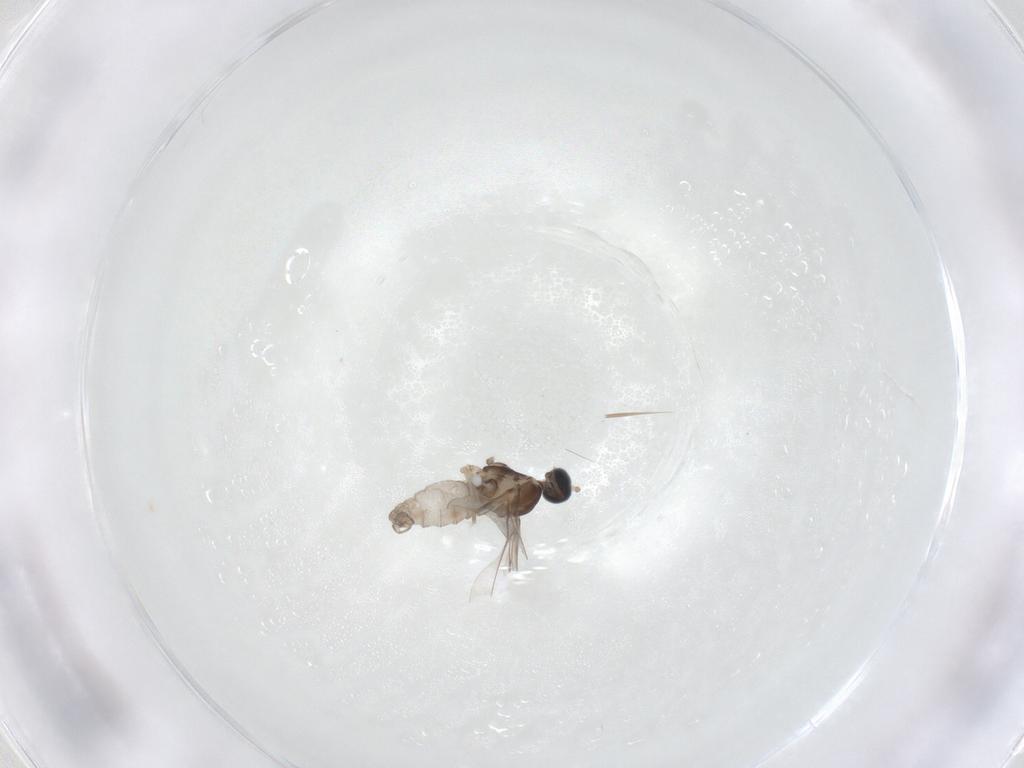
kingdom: Animalia
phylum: Arthropoda
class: Insecta
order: Diptera
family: Cecidomyiidae
